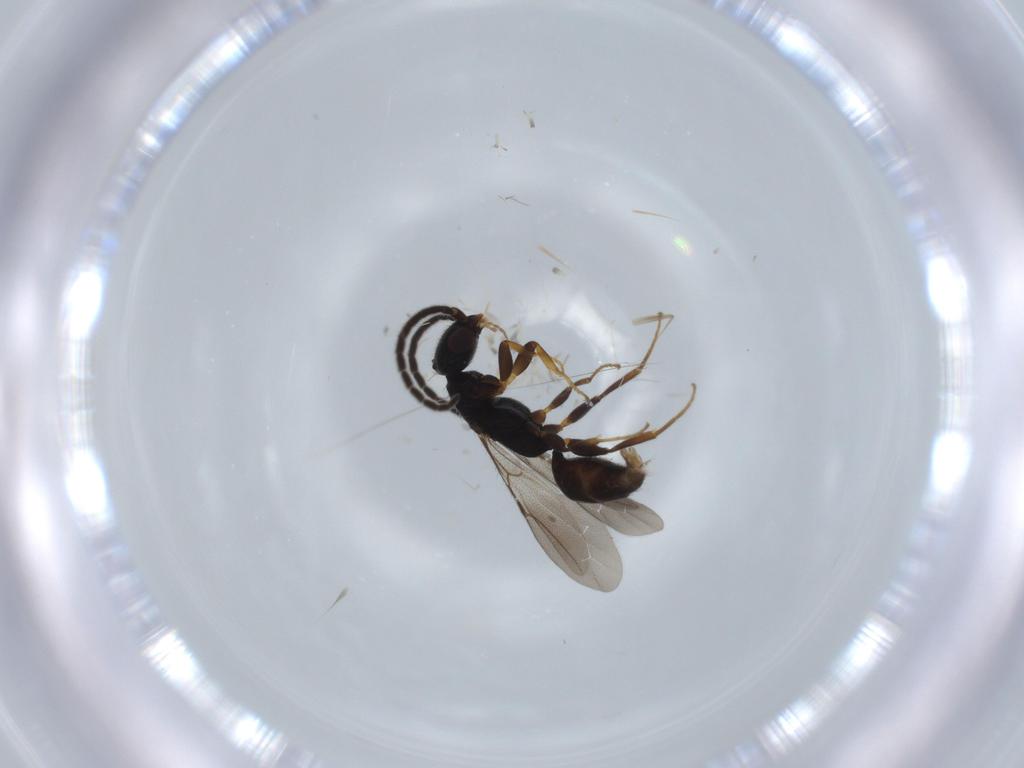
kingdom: Animalia
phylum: Arthropoda
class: Insecta
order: Hymenoptera
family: Bethylidae
